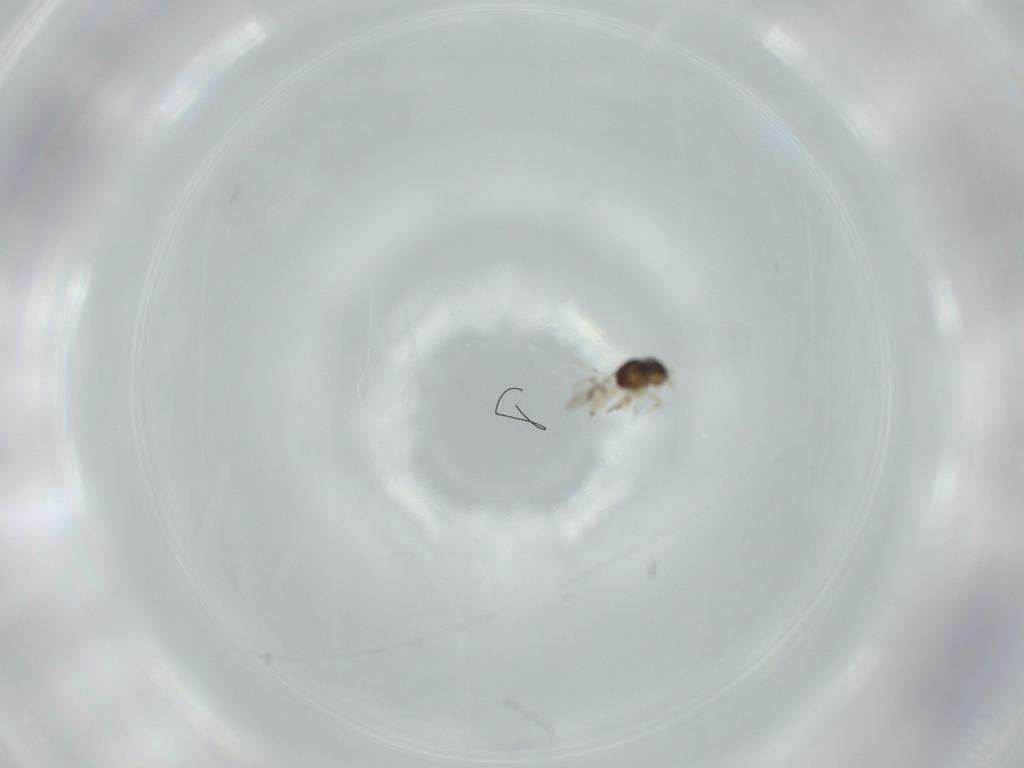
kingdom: Animalia
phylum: Arthropoda
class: Insecta
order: Hymenoptera
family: Scelionidae
